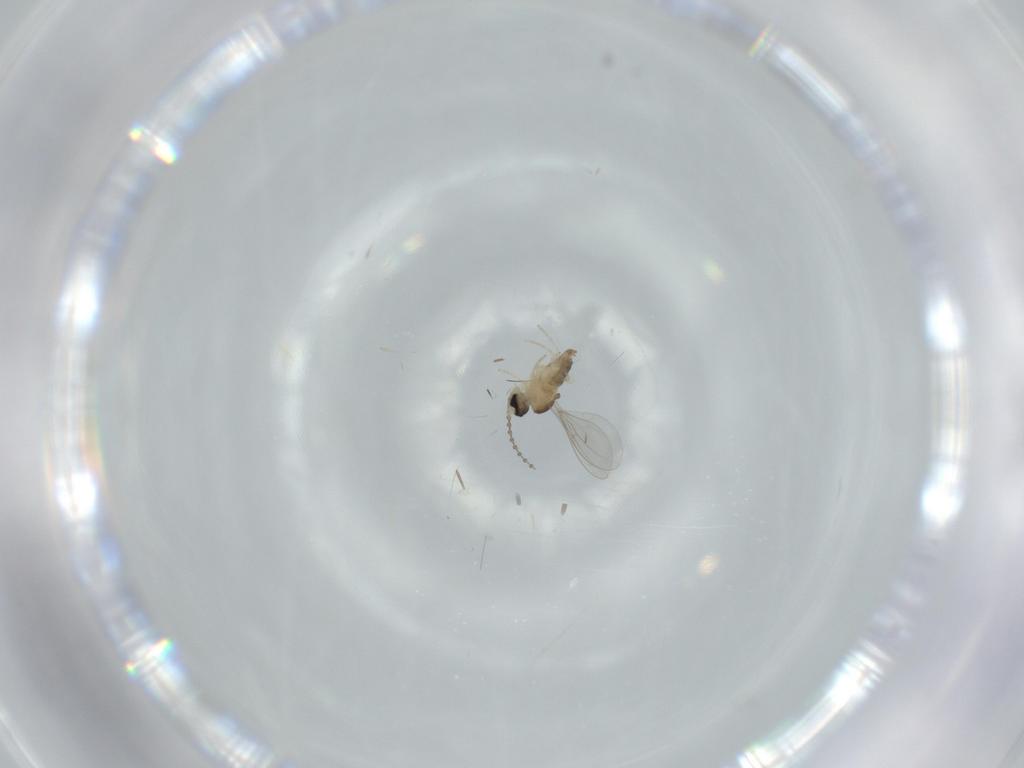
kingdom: Animalia
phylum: Arthropoda
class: Insecta
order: Diptera
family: Cecidomyiidae
